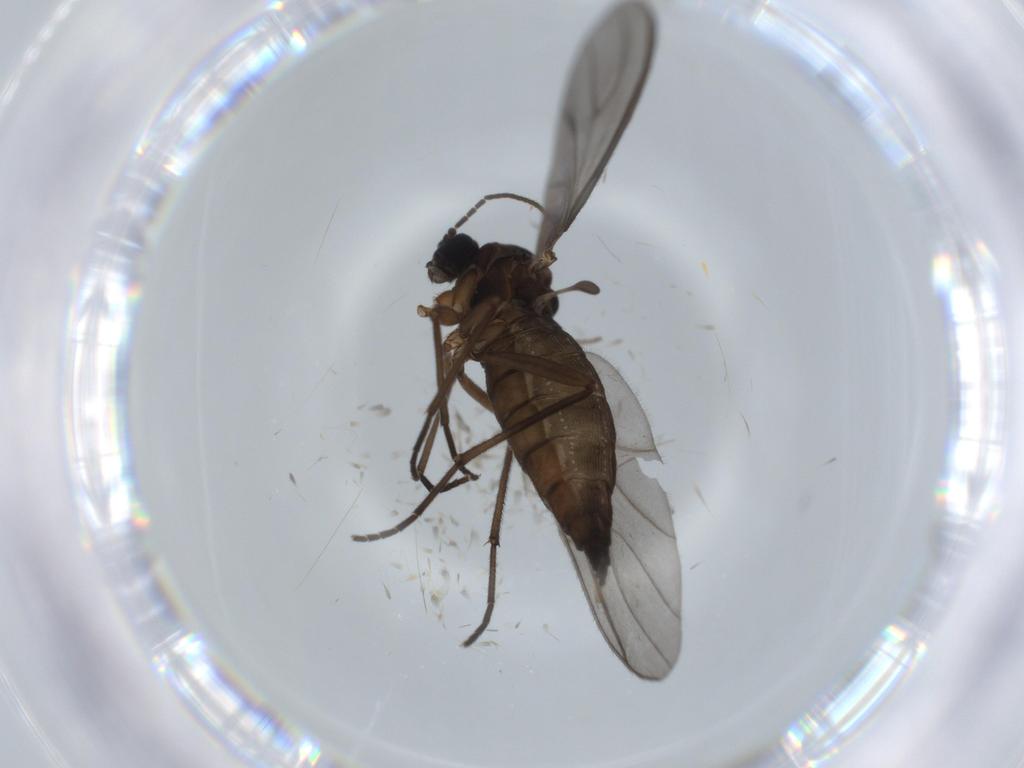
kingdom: Animalia
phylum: Arthropoda
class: Insecta
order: Diptera
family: Sciaridae
